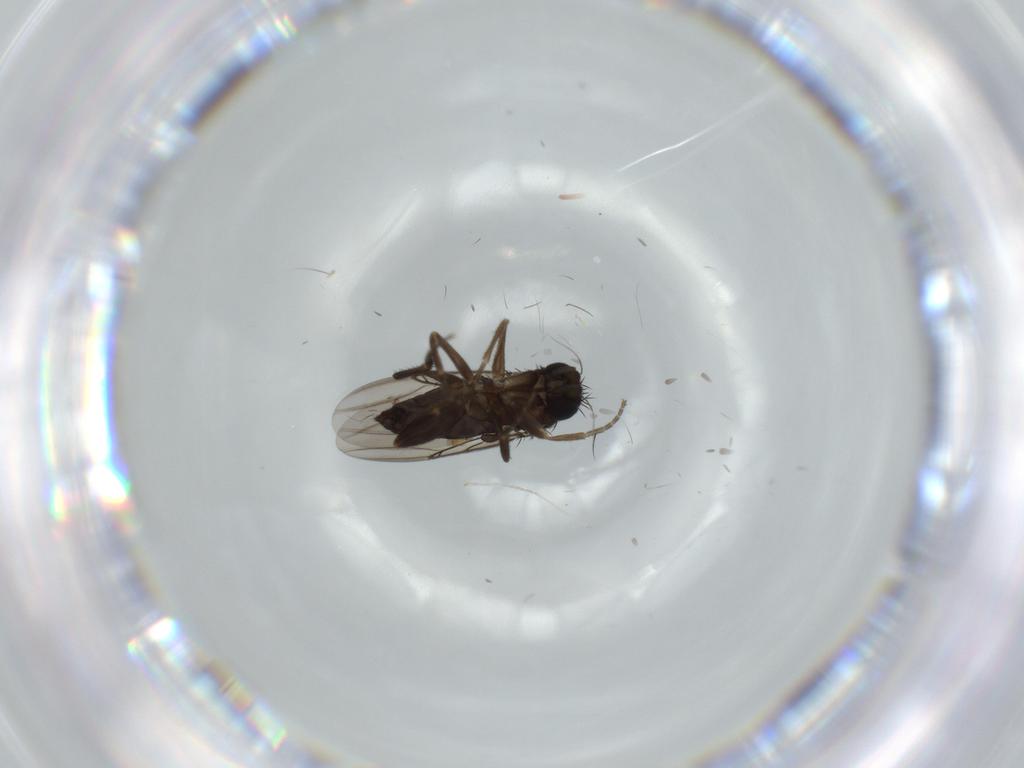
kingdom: Animalia
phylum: Arthropoda
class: Insecta
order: Diptera
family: Phoridae
